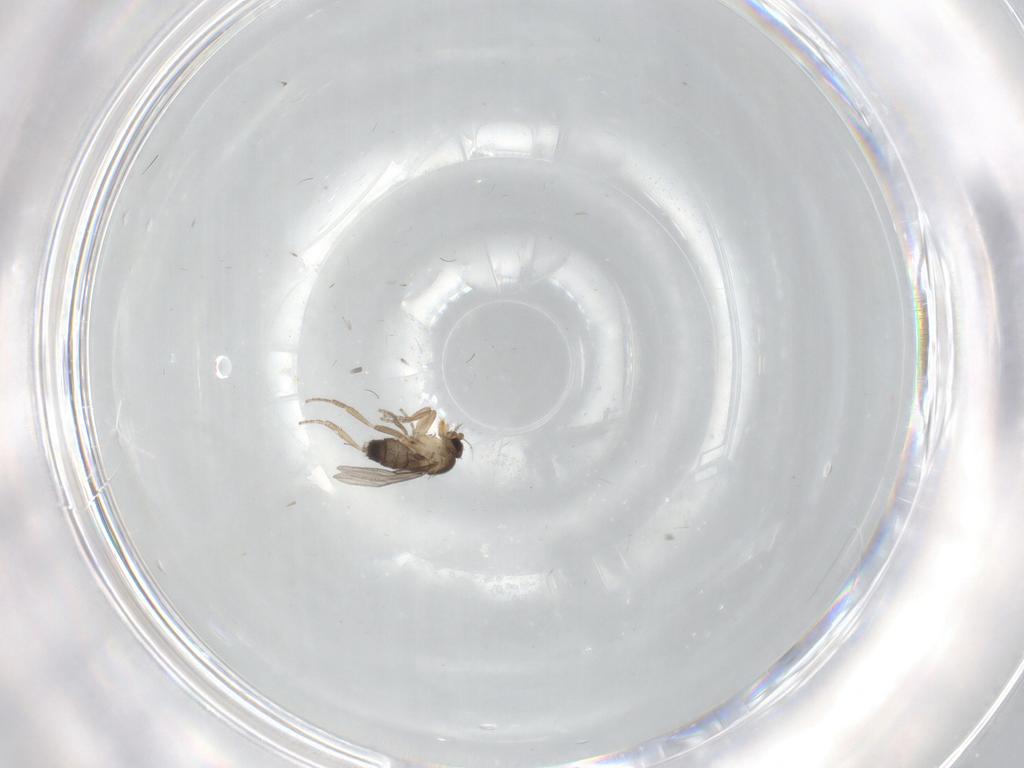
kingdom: Animalia
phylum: Arthropoda
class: Insecta
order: Diptera
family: Phoridae
